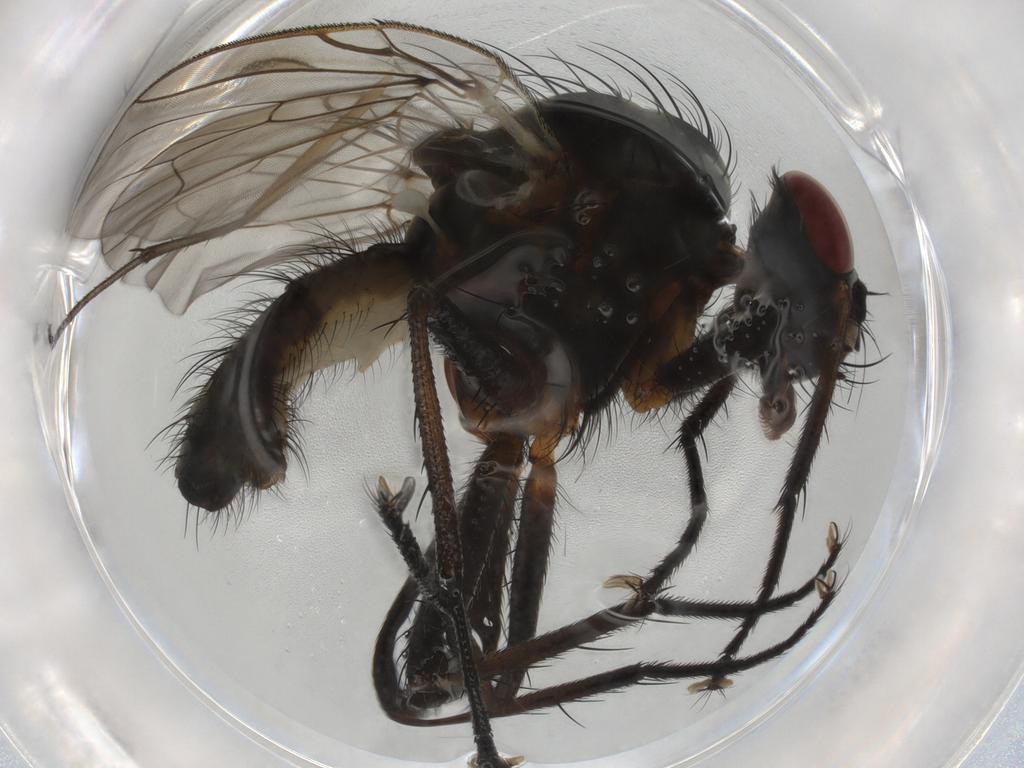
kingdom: Animalia
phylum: Arthropoda
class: Insecta
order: Diptera
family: Anthomyiidae
